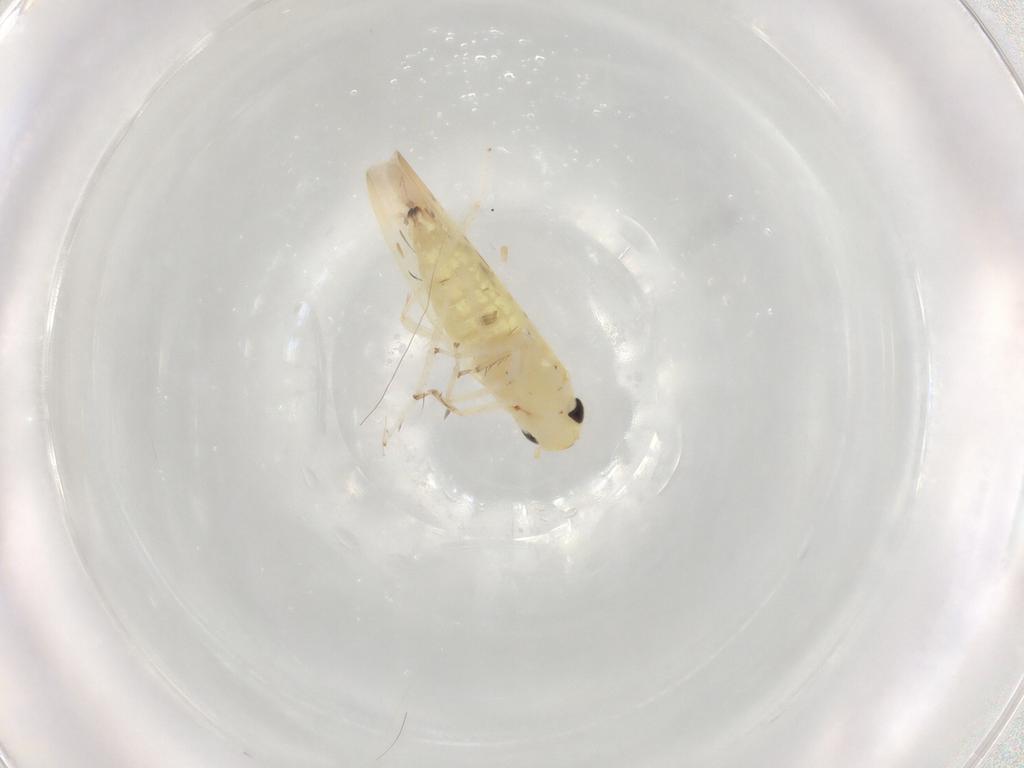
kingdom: Animalia
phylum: Arthropoda
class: Insecta
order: Hemiptera
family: Cicadellidae
